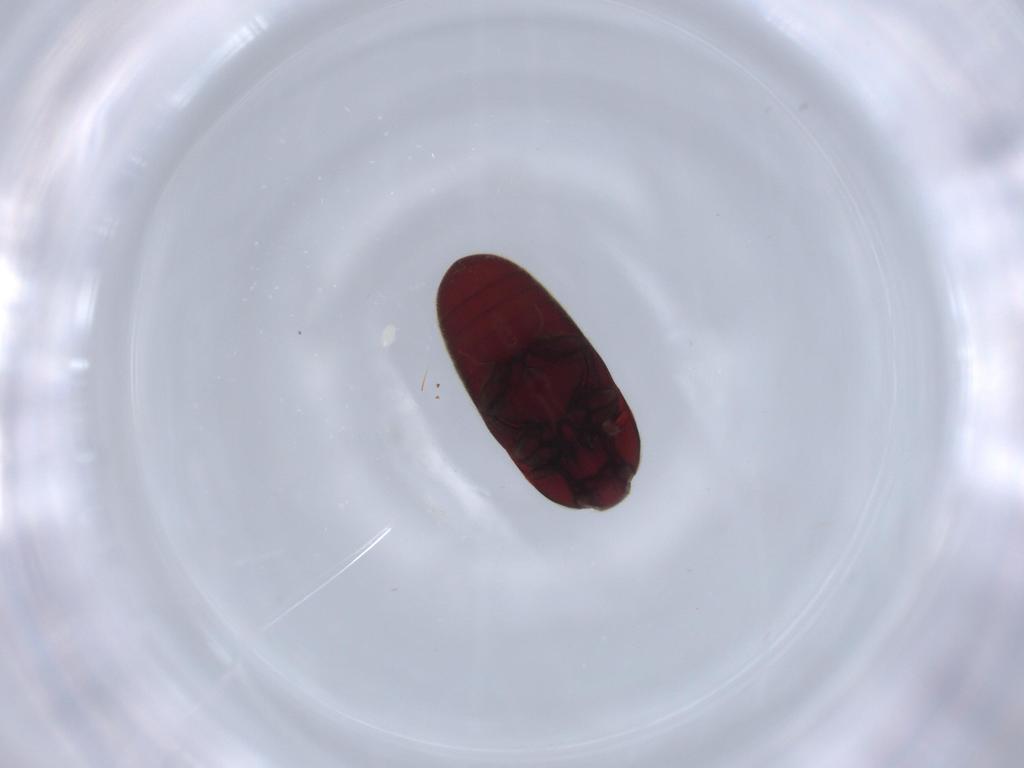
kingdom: Animalia
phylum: Arthropoda
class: Insecta
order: Coleoptera
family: Throscidae
